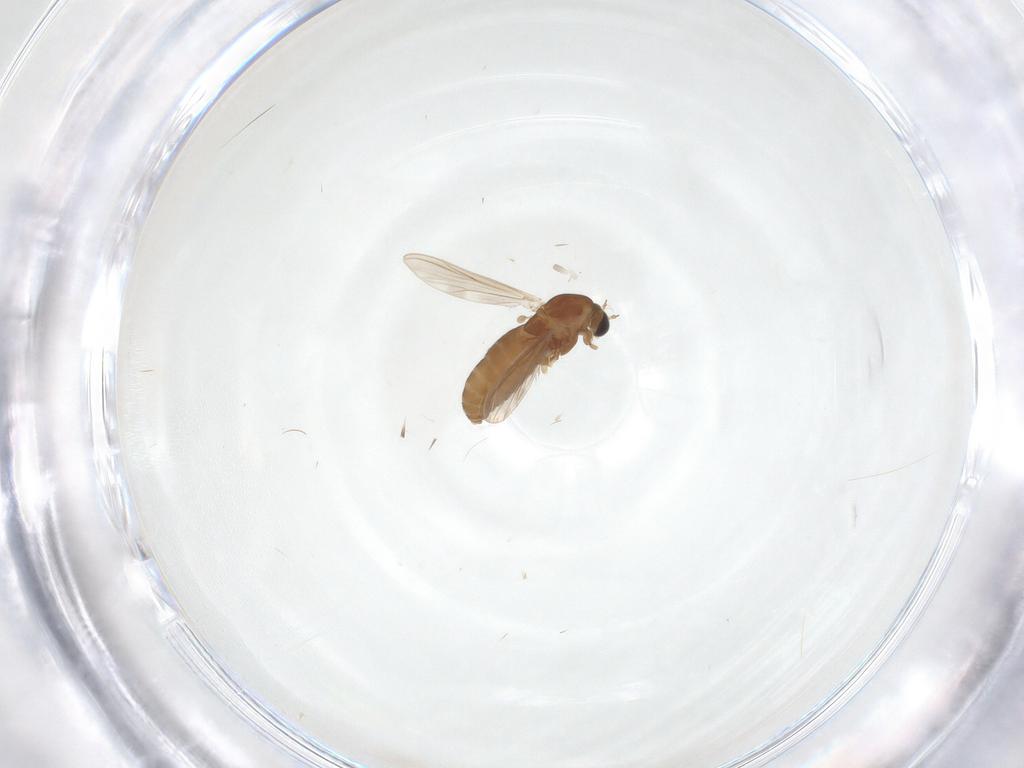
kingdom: Animalia
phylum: Arthropoda
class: Insecta
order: Diptera
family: Chironomidae
